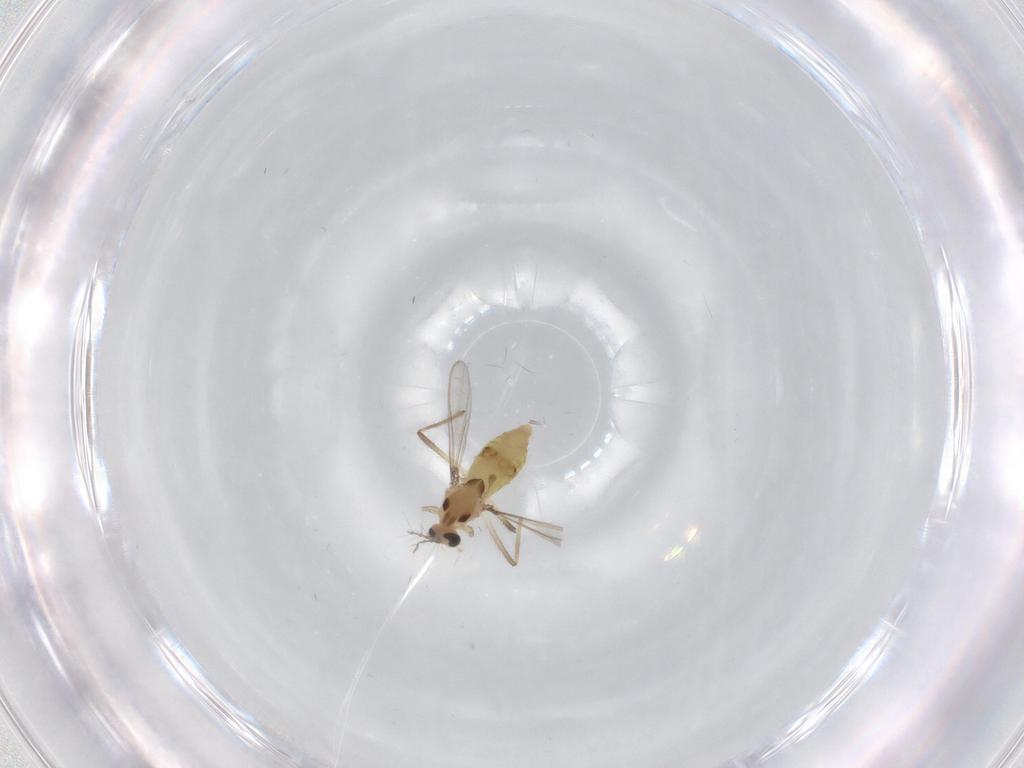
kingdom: Animalia
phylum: Arthropoda
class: Insecta
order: Diptera
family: Chironomidae
